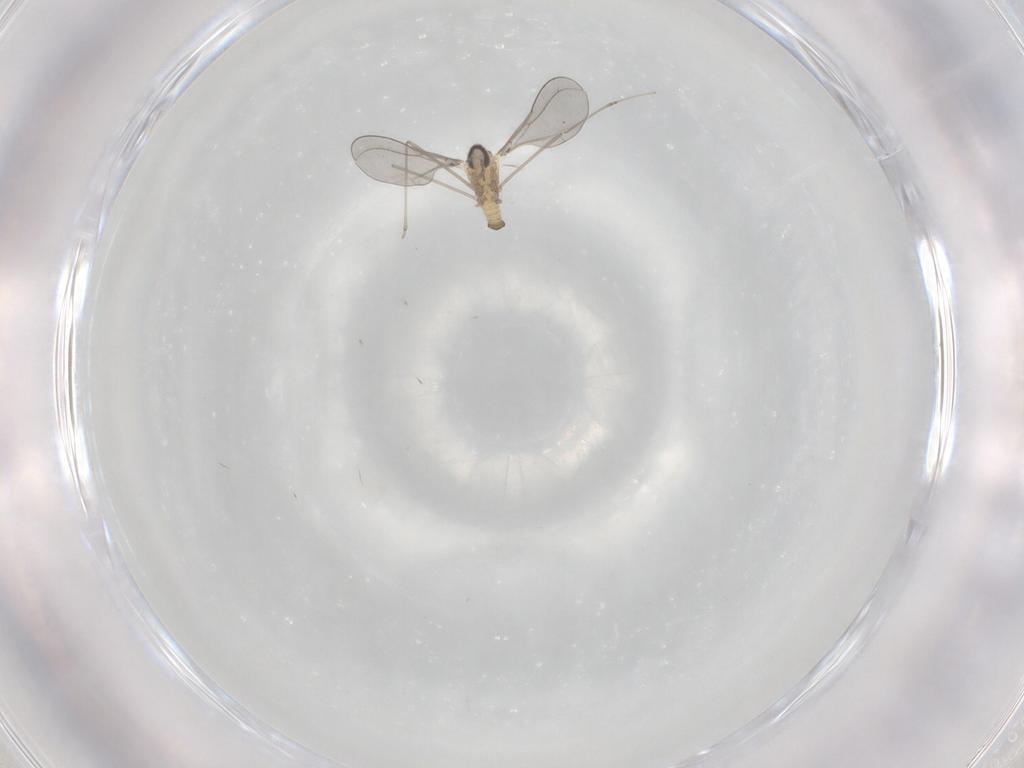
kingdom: Animalia
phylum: Arthropoda
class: Insecta
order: Diptera
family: Cecidomyiidae
